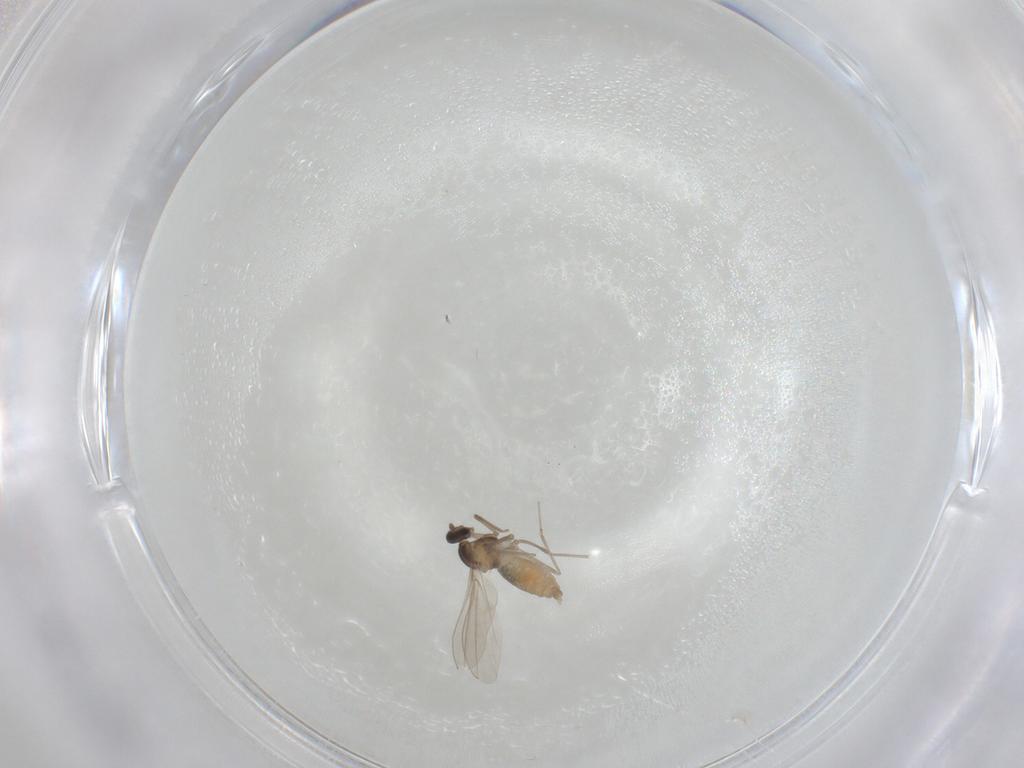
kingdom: Animalia
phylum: Arthropoda
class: Insecta
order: Diptera
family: Cecidomyiidae
